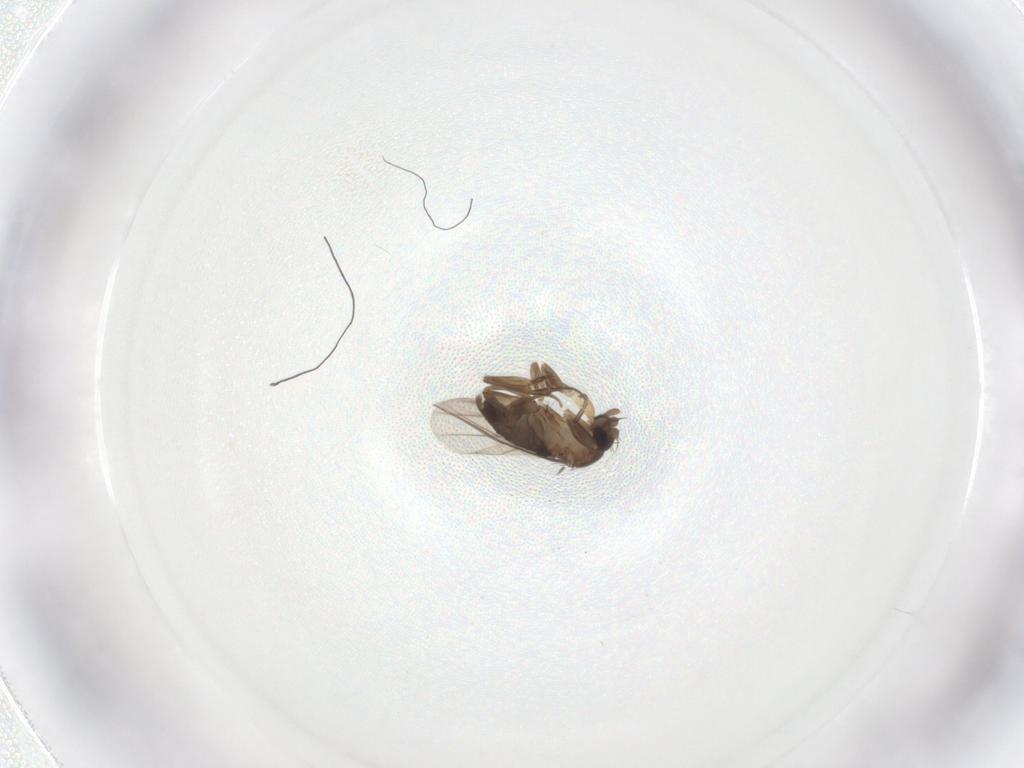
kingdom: Animalia
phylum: Arthropoda
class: Insecta
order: Diptera
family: Phoridae
